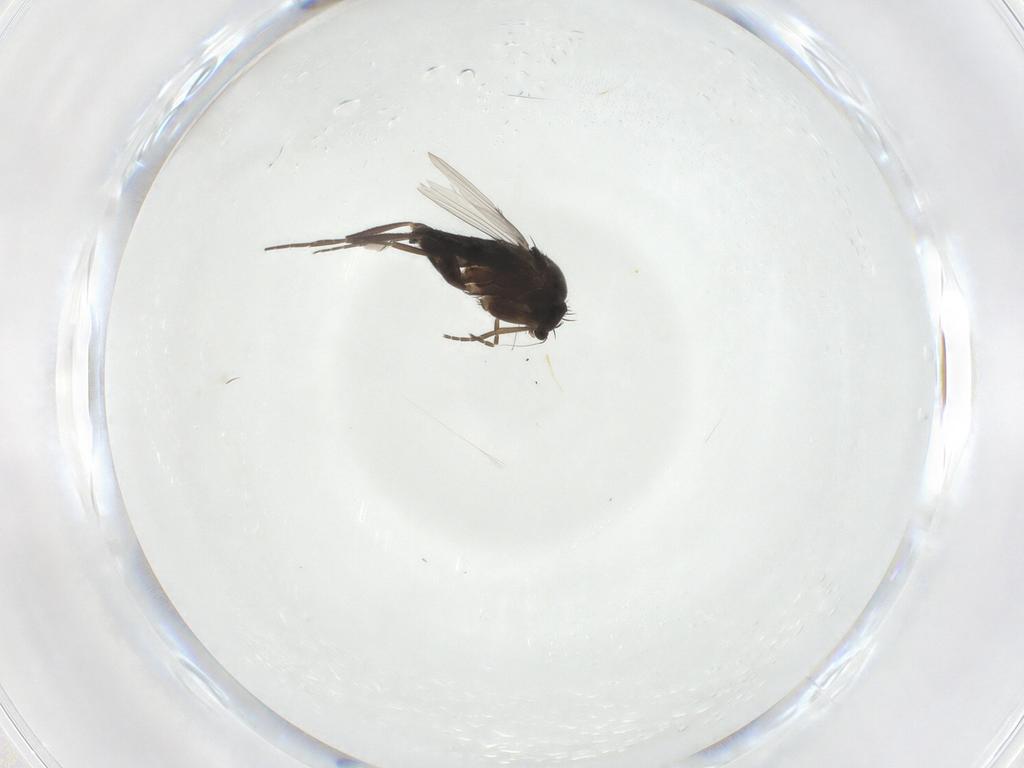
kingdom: Animalia
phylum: Arthropoda
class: Insecta
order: Diptera
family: Phoridae
